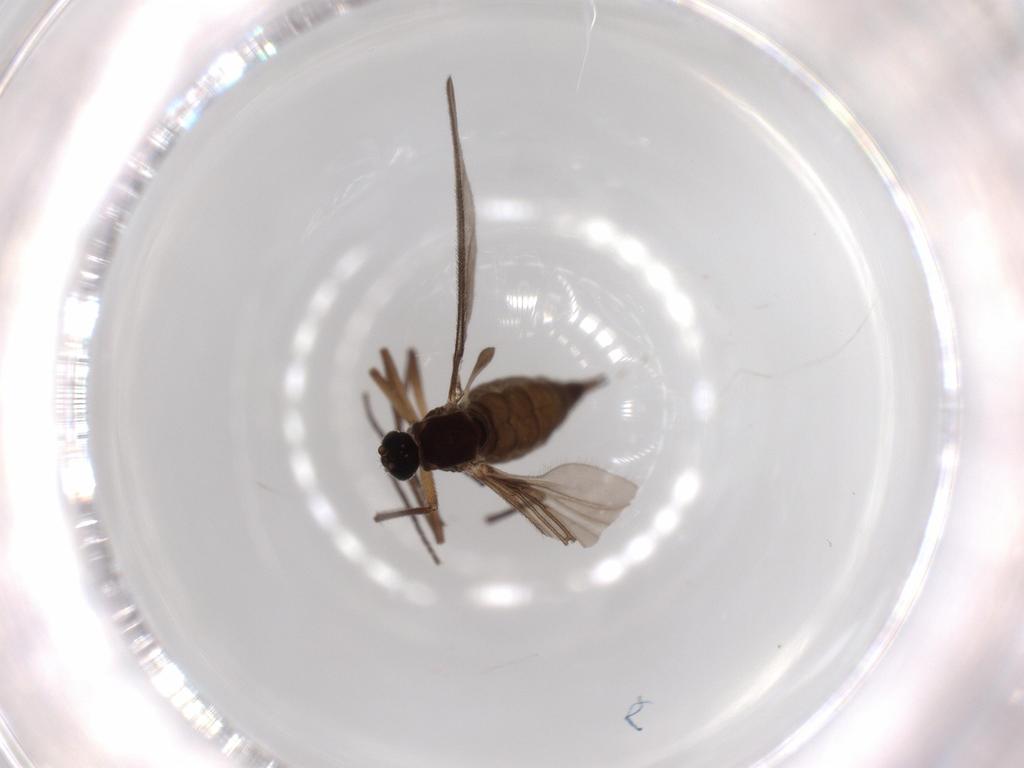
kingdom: Animalia
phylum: Arthropoda
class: Insecta
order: Diptera
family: Sciaridae
